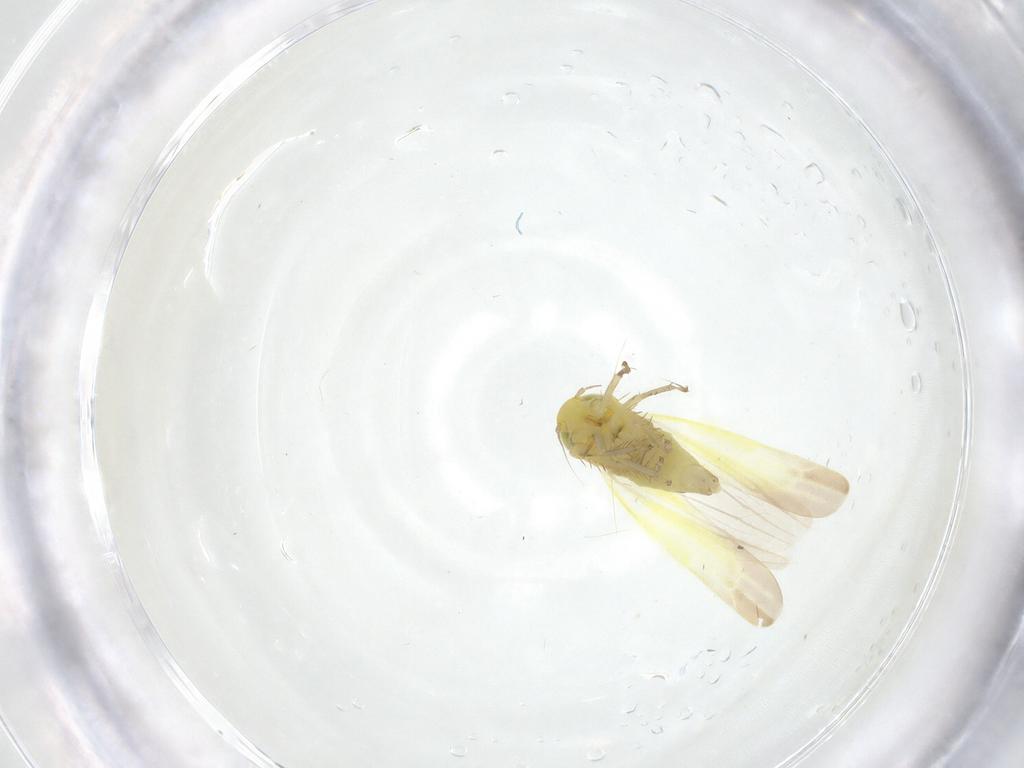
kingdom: Animalia
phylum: Arthropoda
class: Insecta
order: Hemiptera
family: Cicadellidae
